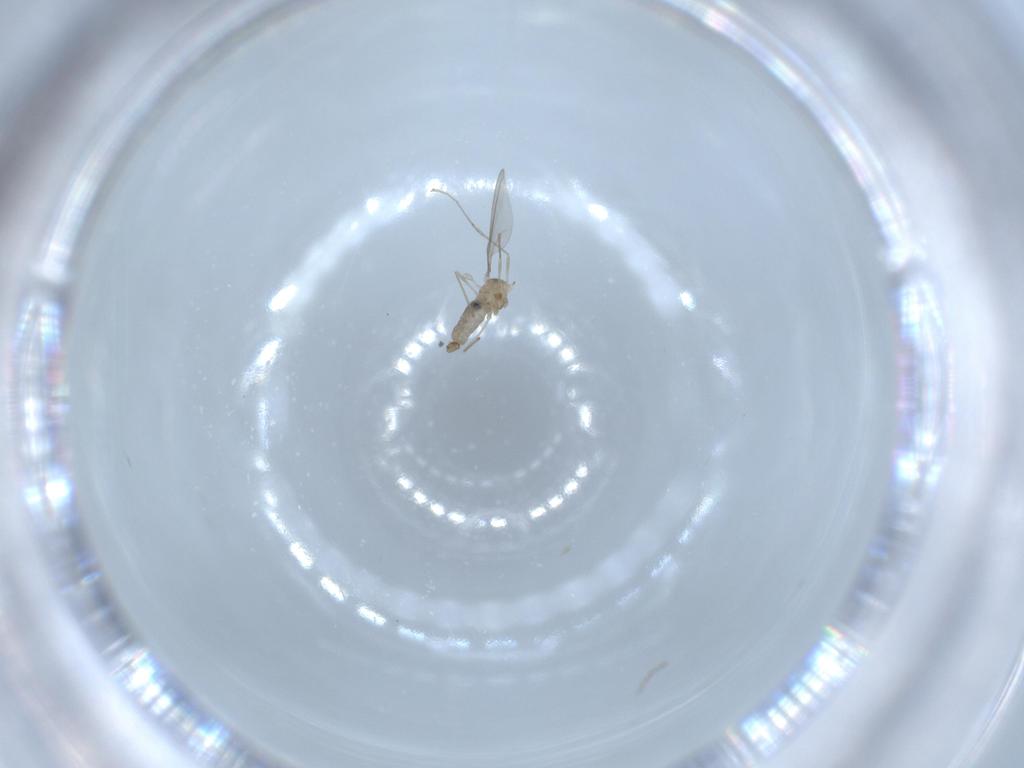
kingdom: Animalia
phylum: Arthropoda
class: Insecta
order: Diptera
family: Cecidomyiidae
